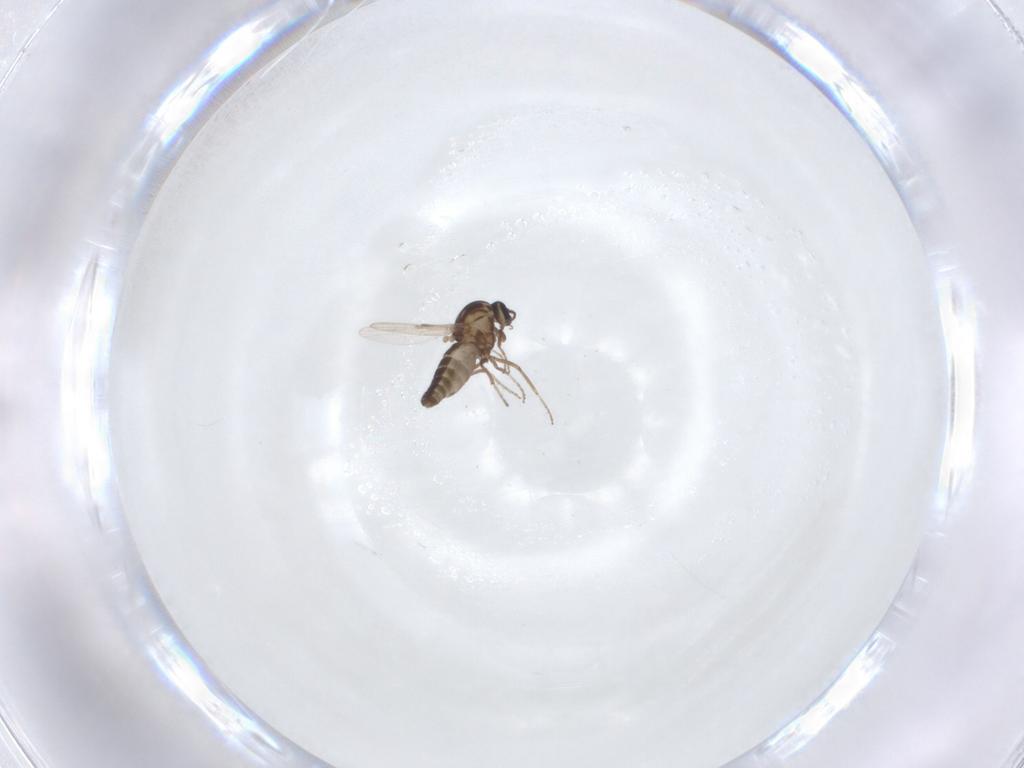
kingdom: Animalia
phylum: Arthropoda
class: Insecta
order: Diptera
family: Ceratopogonidae
